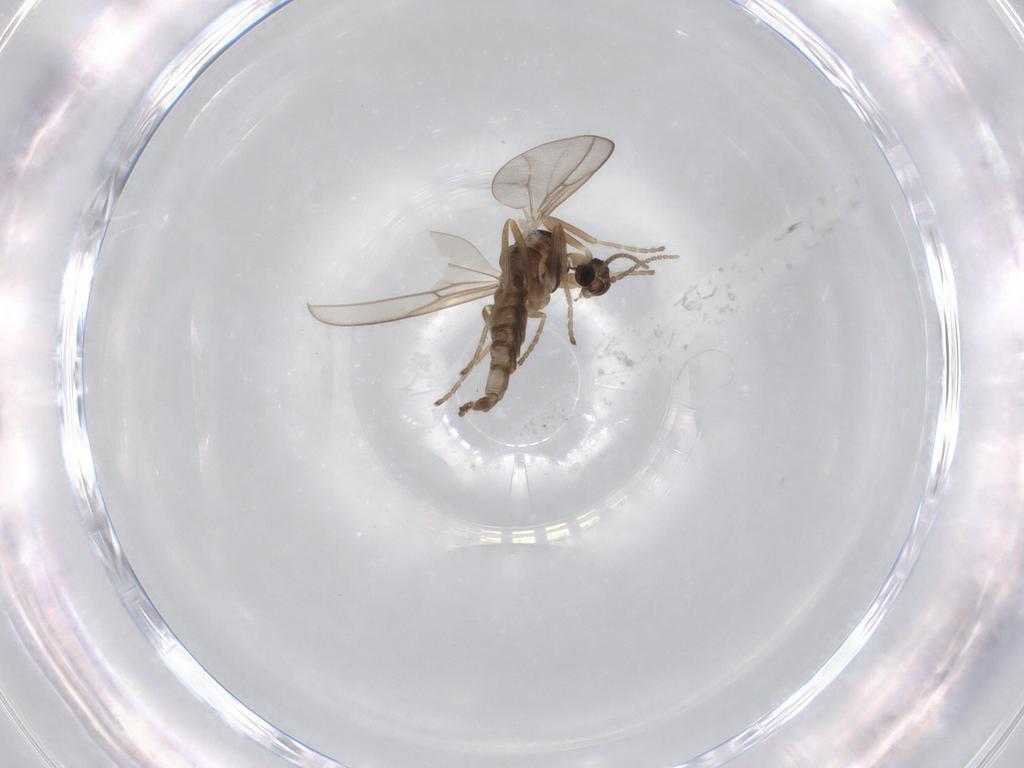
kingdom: Animalia
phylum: Arthropoda
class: Insecta
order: Diptera
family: Cecidomyiidae
